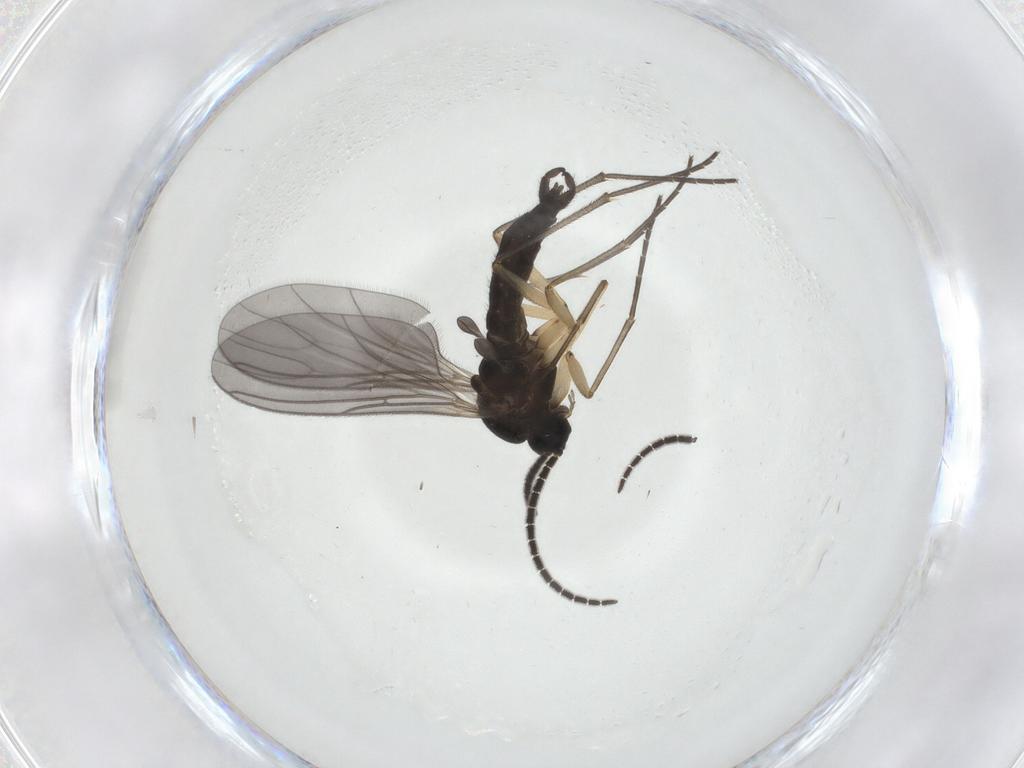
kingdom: Animalia
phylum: Arthropoda
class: Insecta
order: Diptera
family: Sciaridae
